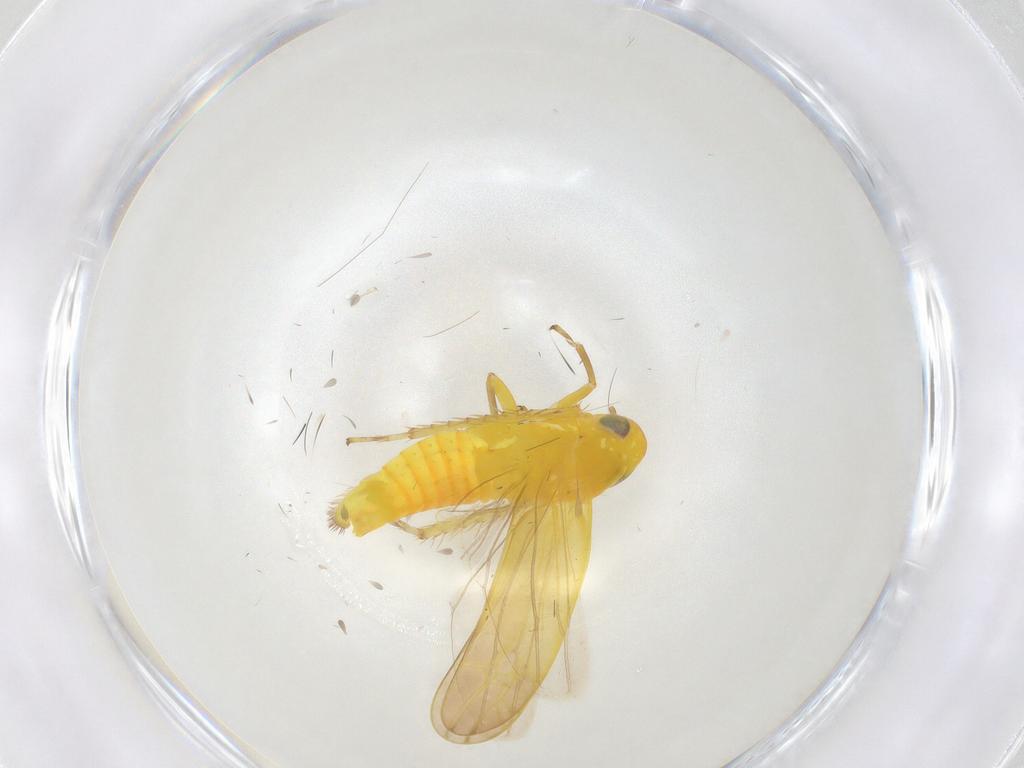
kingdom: Animalia
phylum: Arthropoda
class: Insecta
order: Hemiptera
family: Cicadellidae
